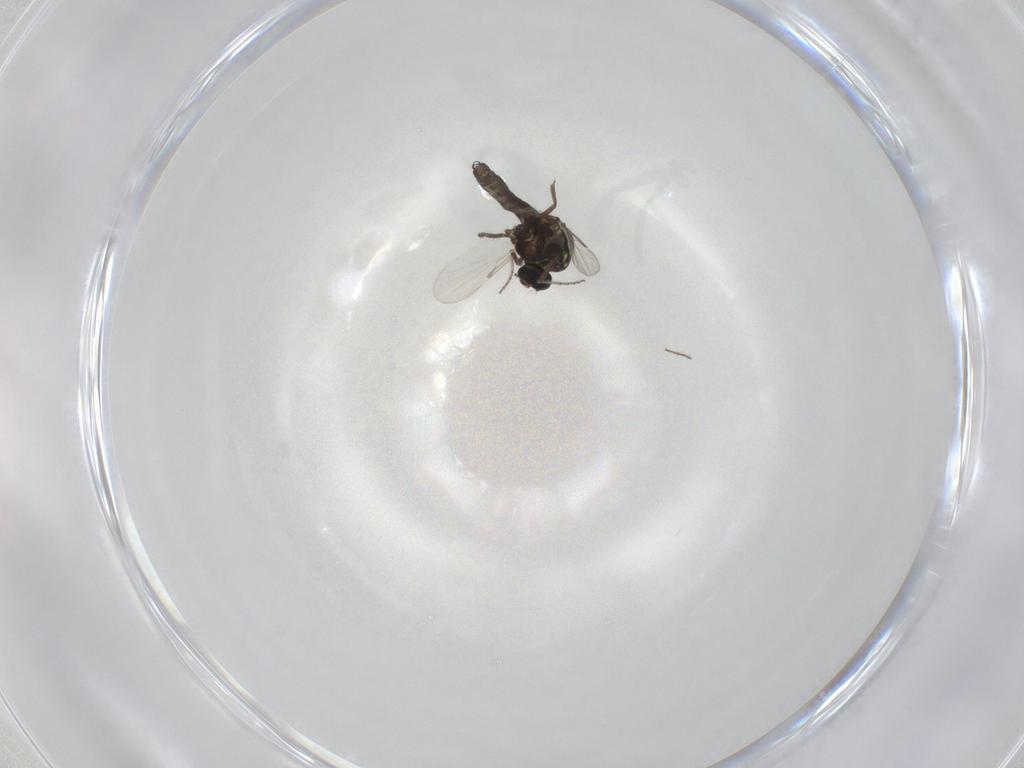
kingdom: Animalia
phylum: Arthropoda
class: Insecta
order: Diptera
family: Ceratopogonidae
